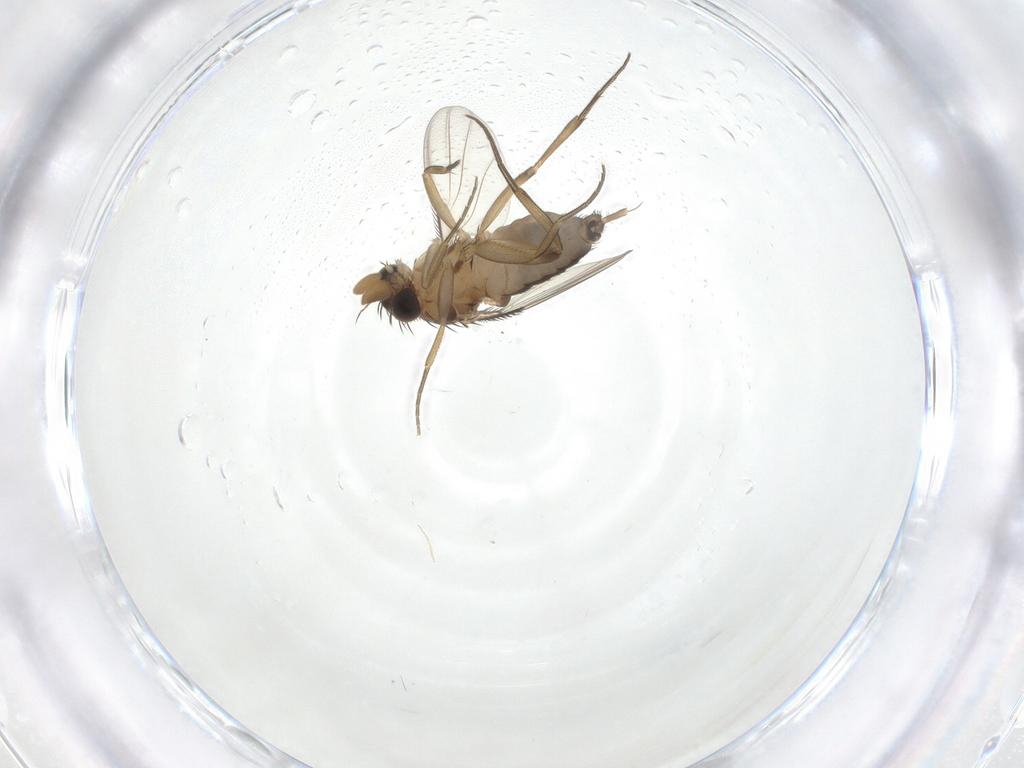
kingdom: Animalia
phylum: Arthropoda
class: Insecta
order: Diptera
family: Phoridae
